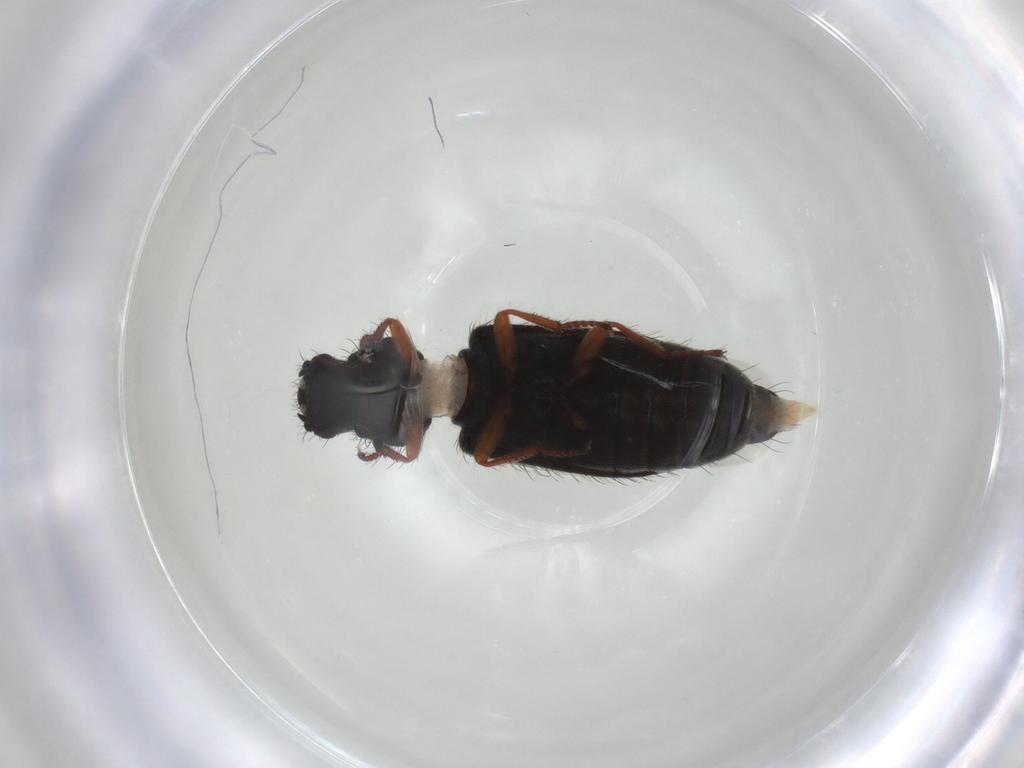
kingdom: Animalia
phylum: Arthropoda
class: Insecta
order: Coleoptera
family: Melyridae
